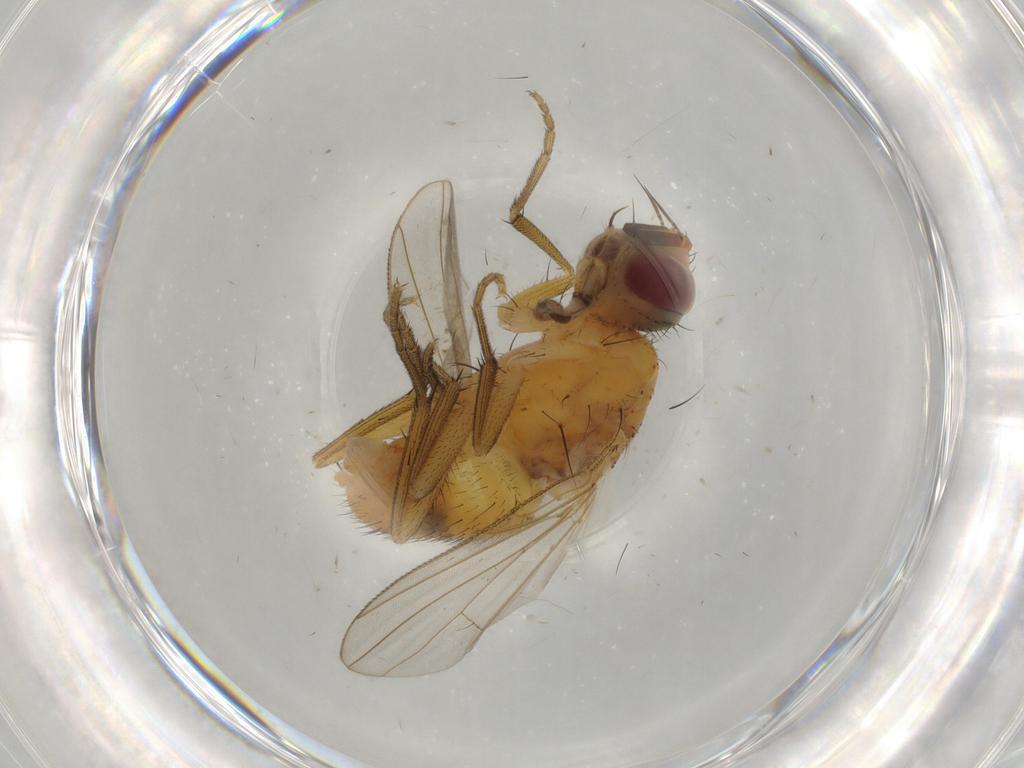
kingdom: Animalia
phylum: Arthropoda
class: Insecta
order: Diptera
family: Muscidae
